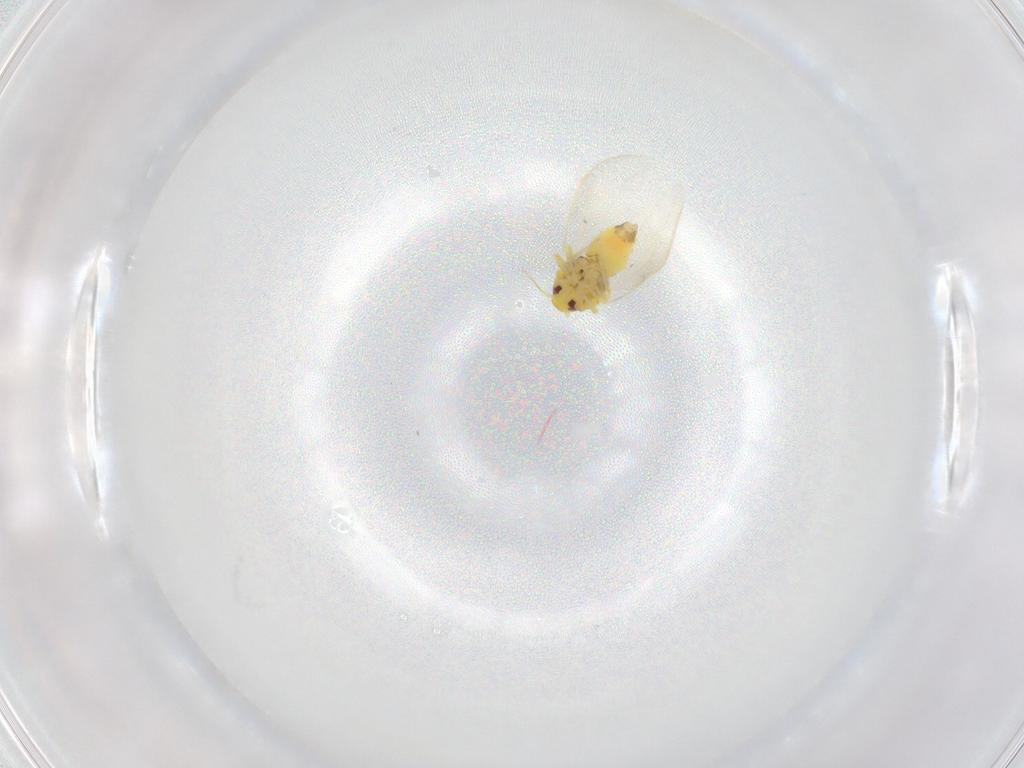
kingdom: Animalia
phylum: Arthropoda
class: Insecta
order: Hemiptera
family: Aleyrodidae
